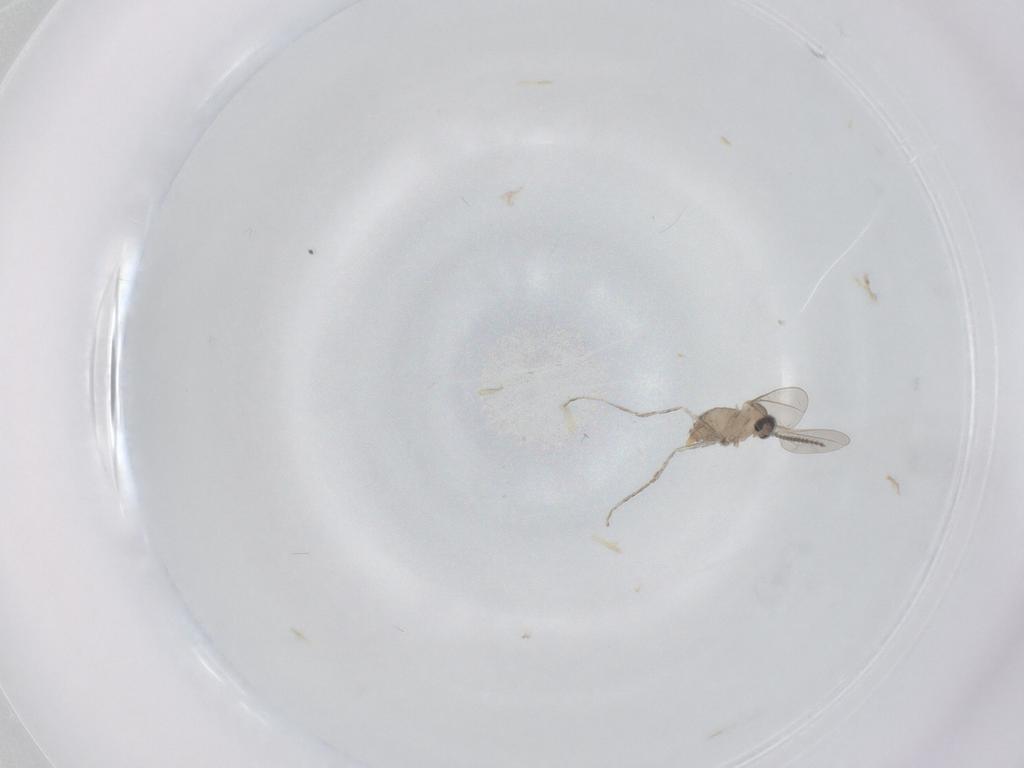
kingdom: Animalia
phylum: Arthropoda
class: Insecta
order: Diptera
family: Cecidomyiidae
